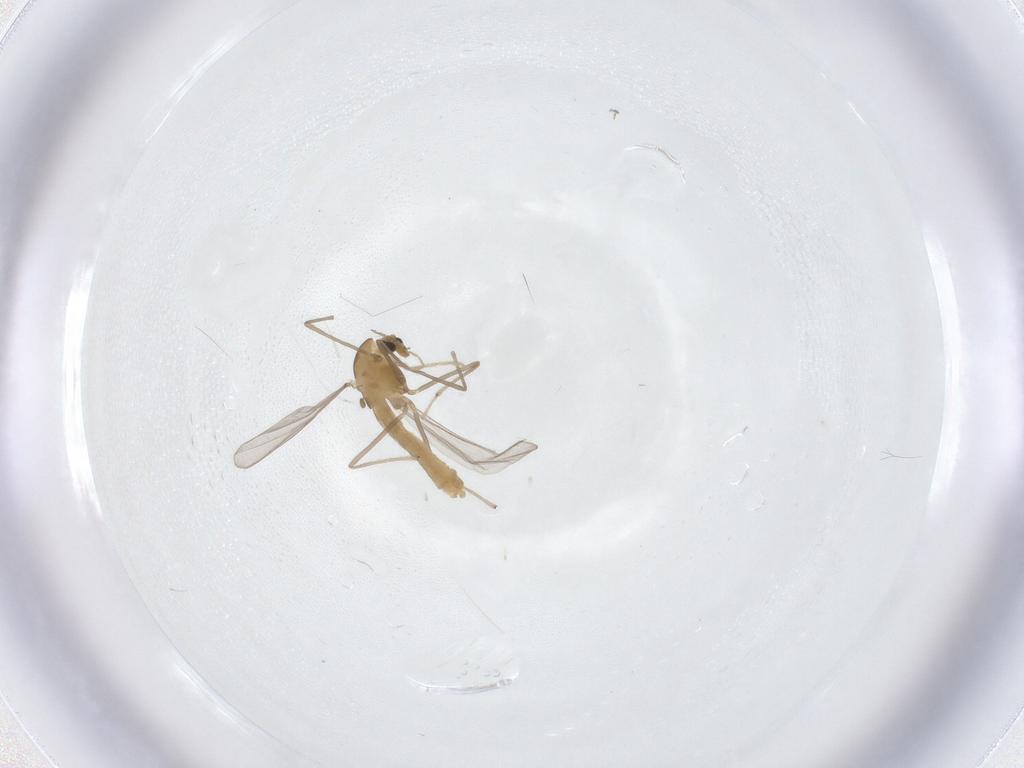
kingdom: Animalia
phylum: Arthropoda
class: Insecta
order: Diptera
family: Chironomidae
